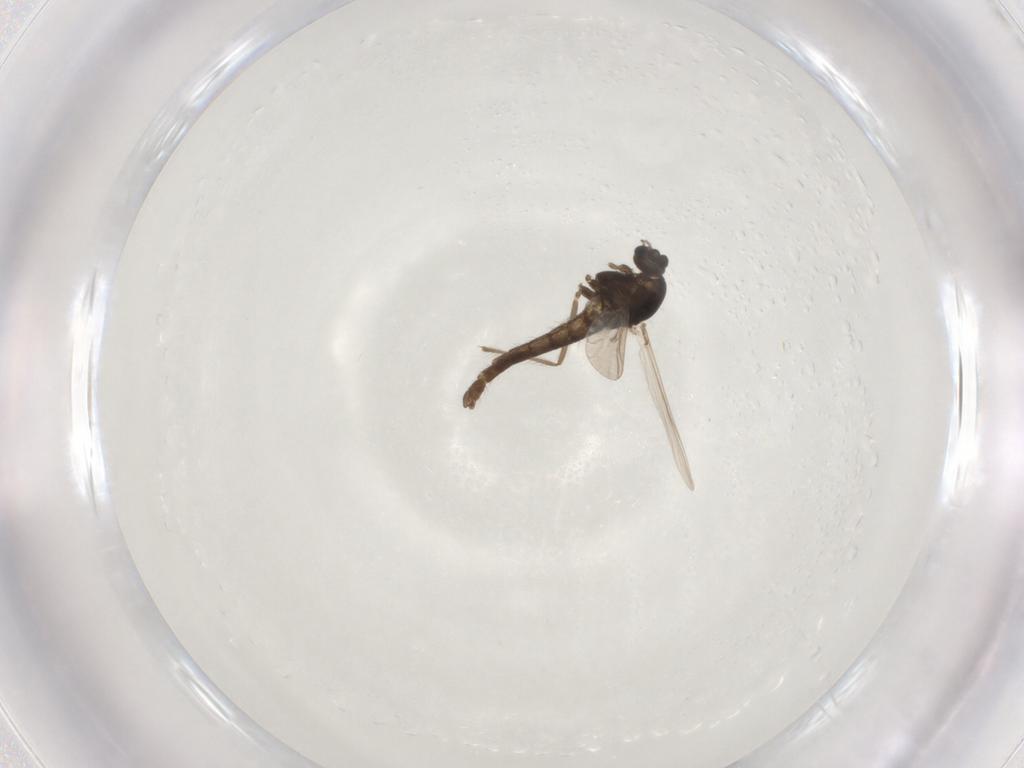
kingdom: Animalia
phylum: Arthropoda
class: Insecta
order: Diptera
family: Chironomidae
